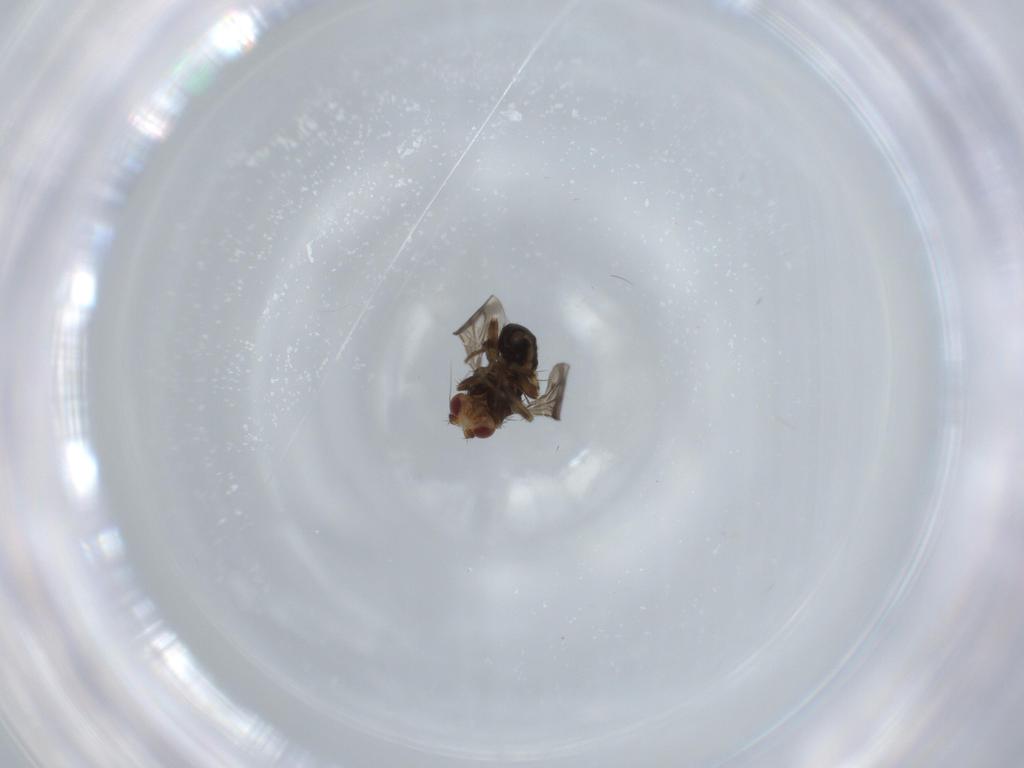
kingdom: Animalia
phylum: Arthropoda
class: Insecta
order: Diptera
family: Sphaeroceridae
